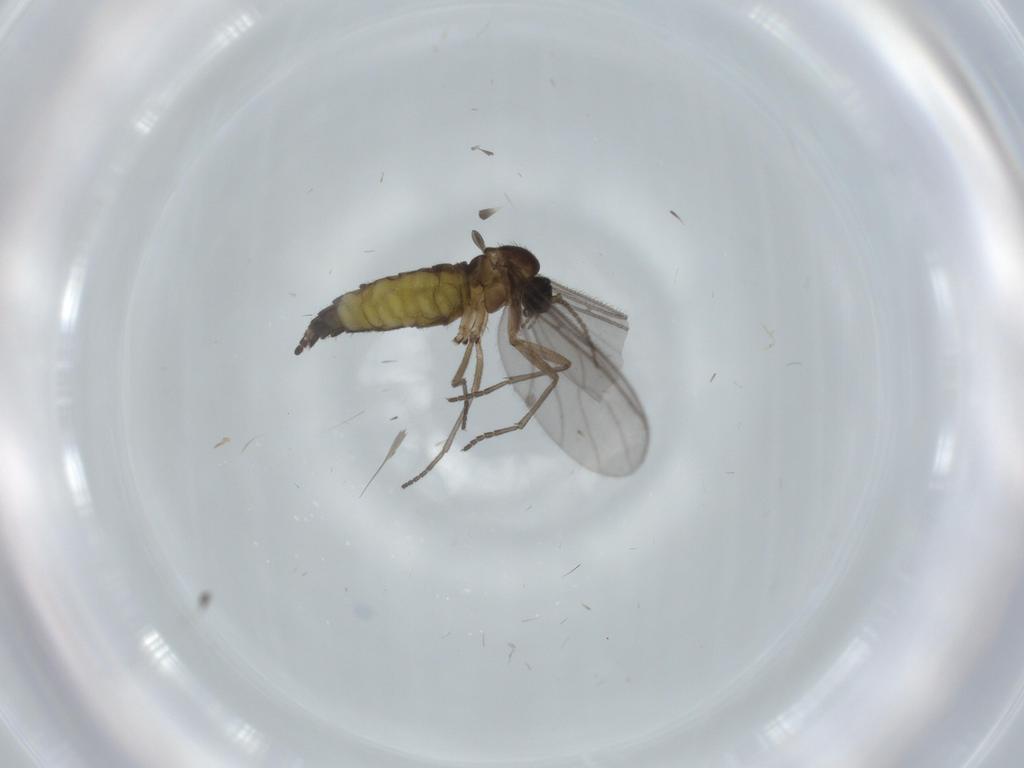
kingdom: Animalia
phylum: Arthropoda
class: Insecta
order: Diptera
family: Sciaridae
